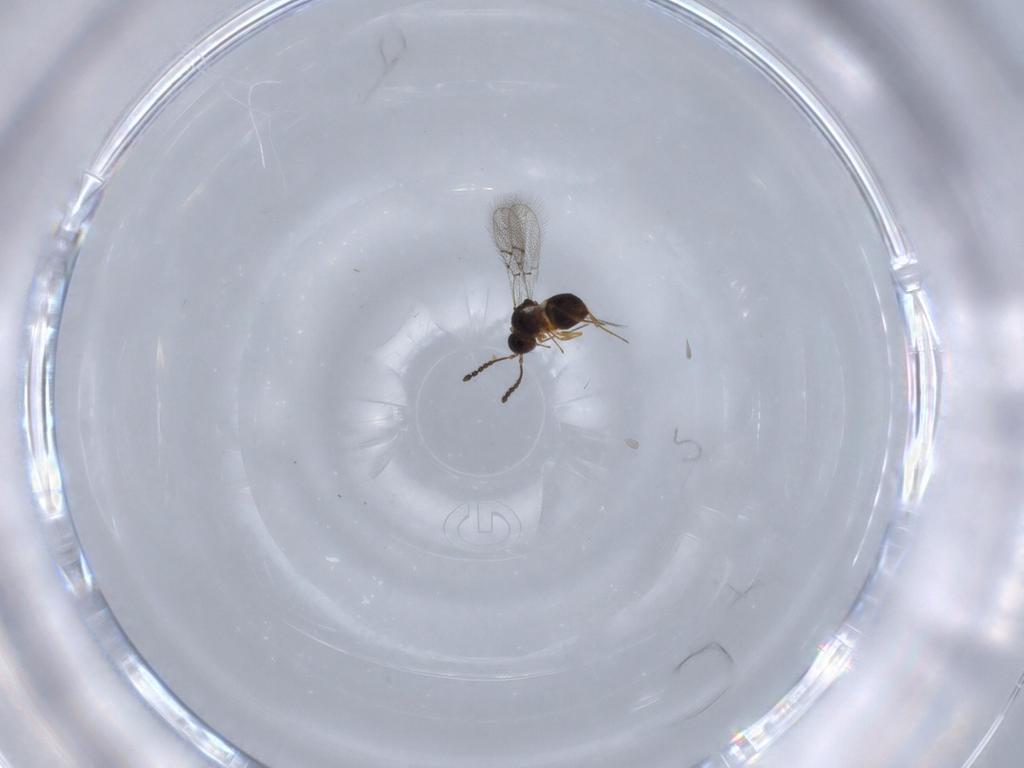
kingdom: Animalia
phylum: Arthropoda
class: Insecta
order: Hymenoptera
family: Figitidae
